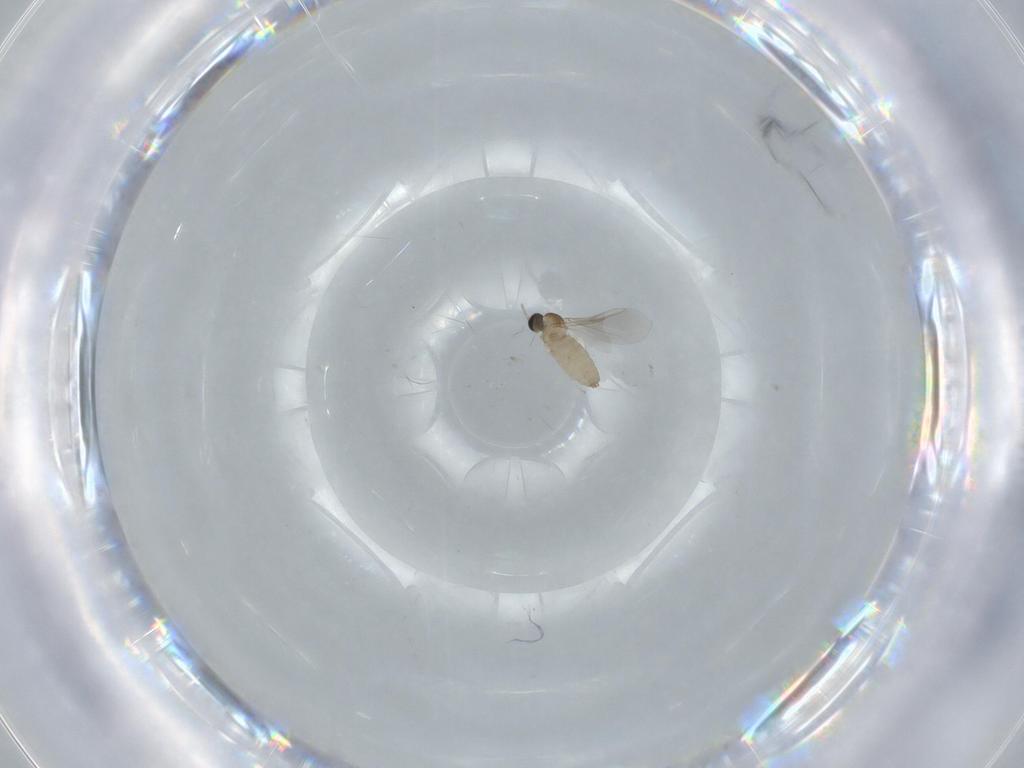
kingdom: Animalia
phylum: Arthropoda
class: Insecta
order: Diptera
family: Cecidomyiidae
